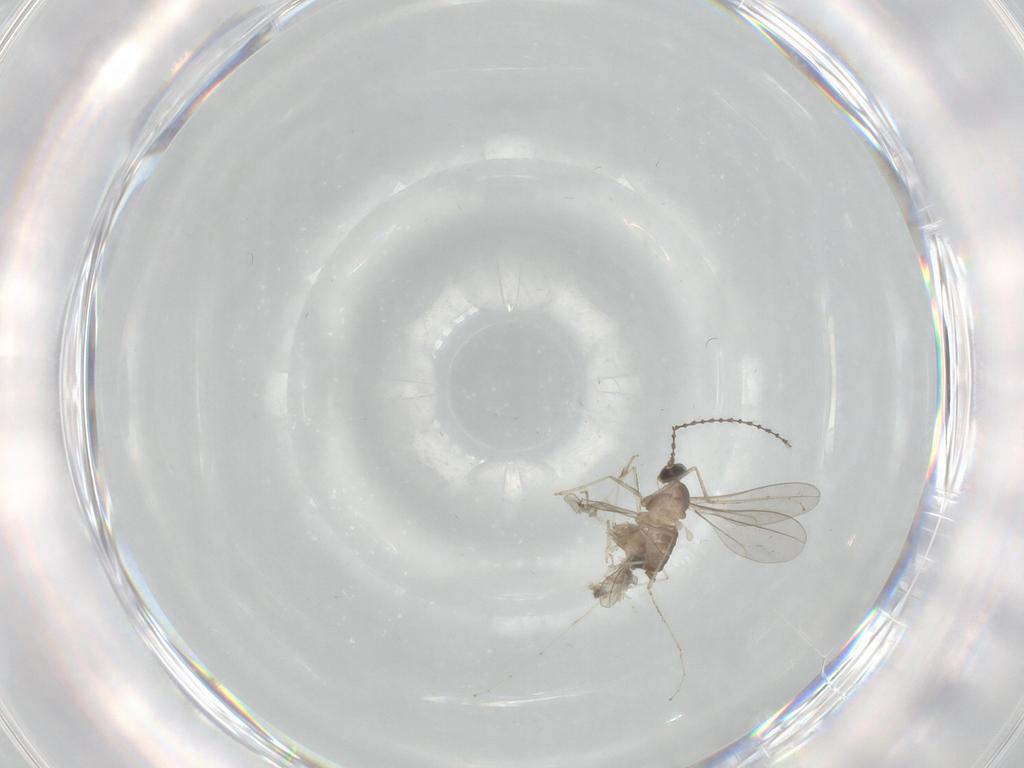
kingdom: Animalia
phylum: Arthropoda
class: Insecta
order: Diptera
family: Chironomidae
